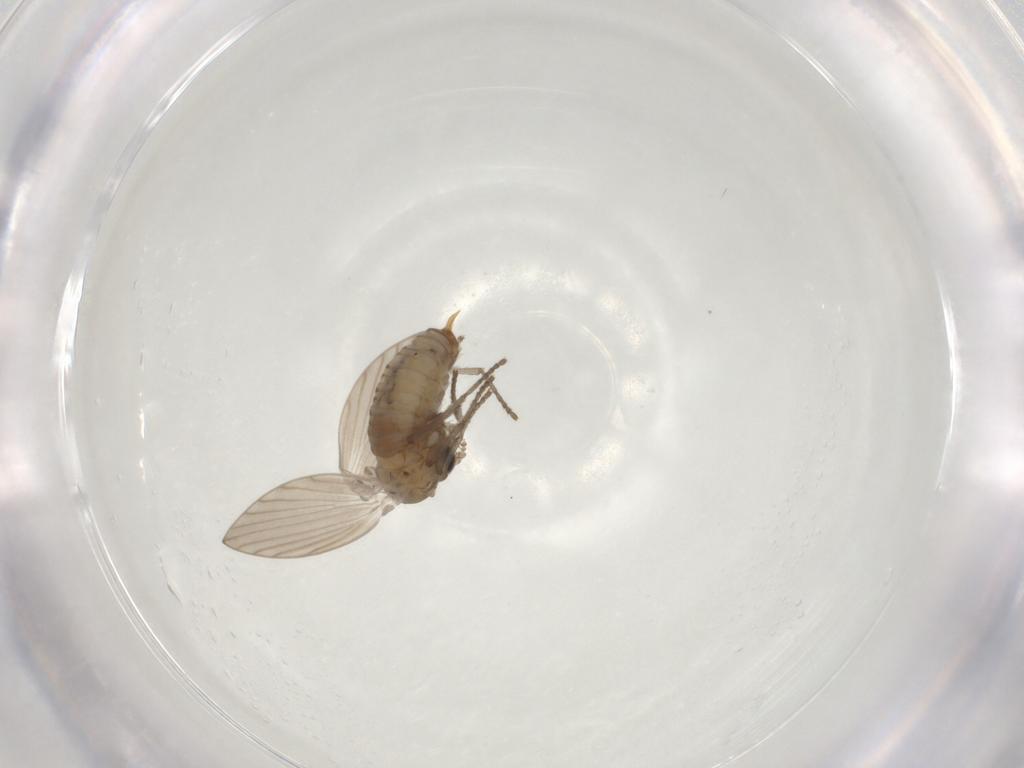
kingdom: Animalia
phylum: Arthropoda
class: Insecta
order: Diptera
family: Psychodidae
